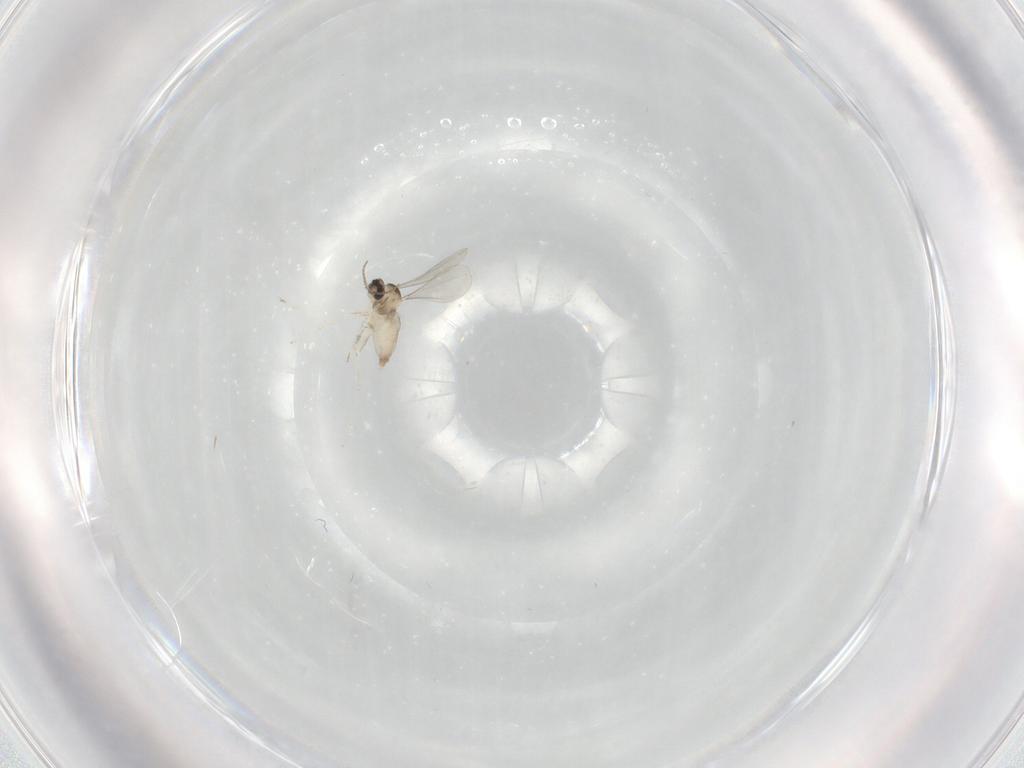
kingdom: Animalia
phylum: Arthropoda
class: Insecta
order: Diptera
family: Chironomidae
